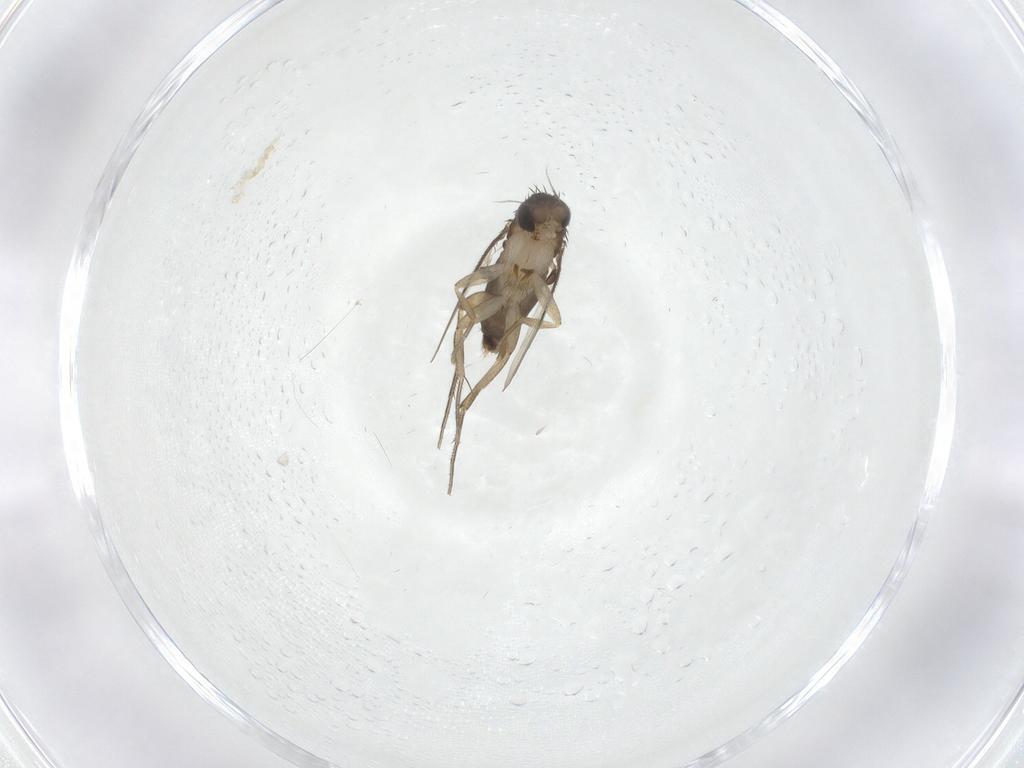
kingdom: Animalia
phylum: Arthropoda
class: Insecta
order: Diptera
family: Phoridae
